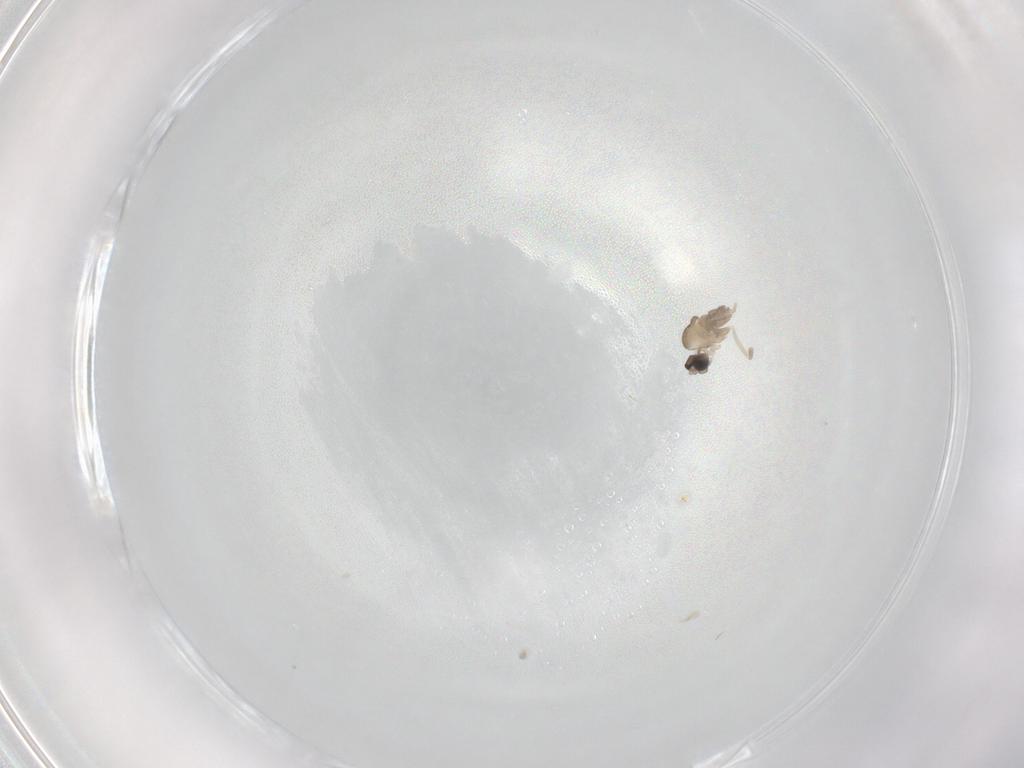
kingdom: Animalia
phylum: Arthropoda
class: Insecta
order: Diptera
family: Cecidomyiidae
